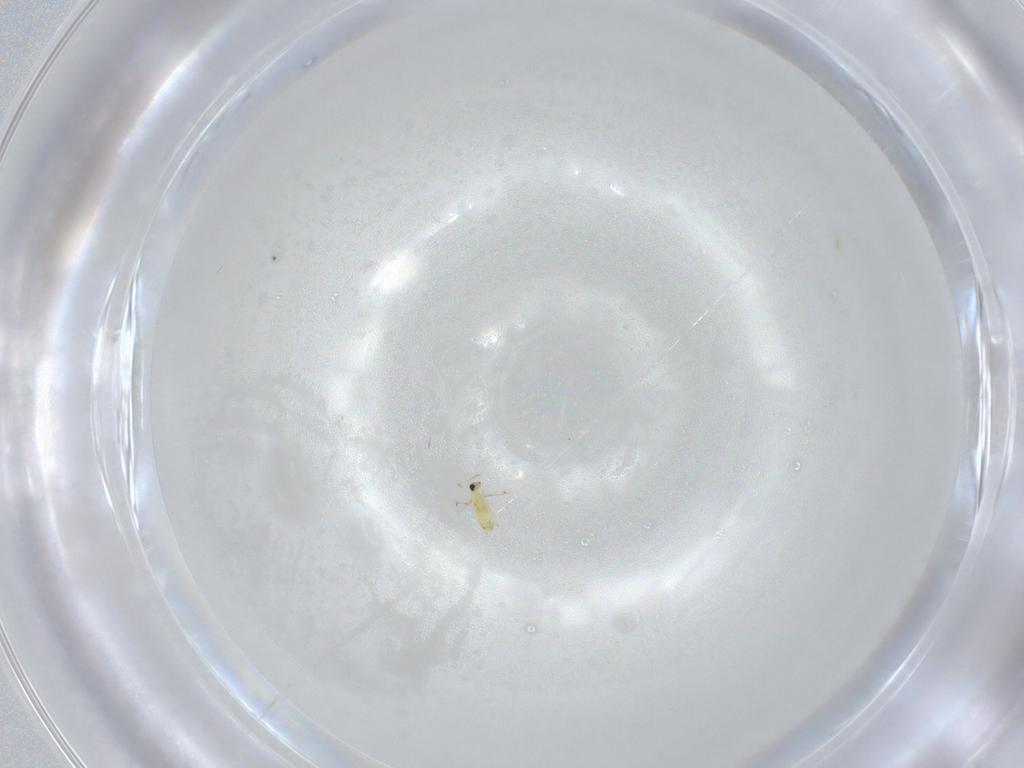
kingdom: Animalia
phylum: Arthropoda
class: Insecta
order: Hymenoptera
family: Trichogrammatidae
